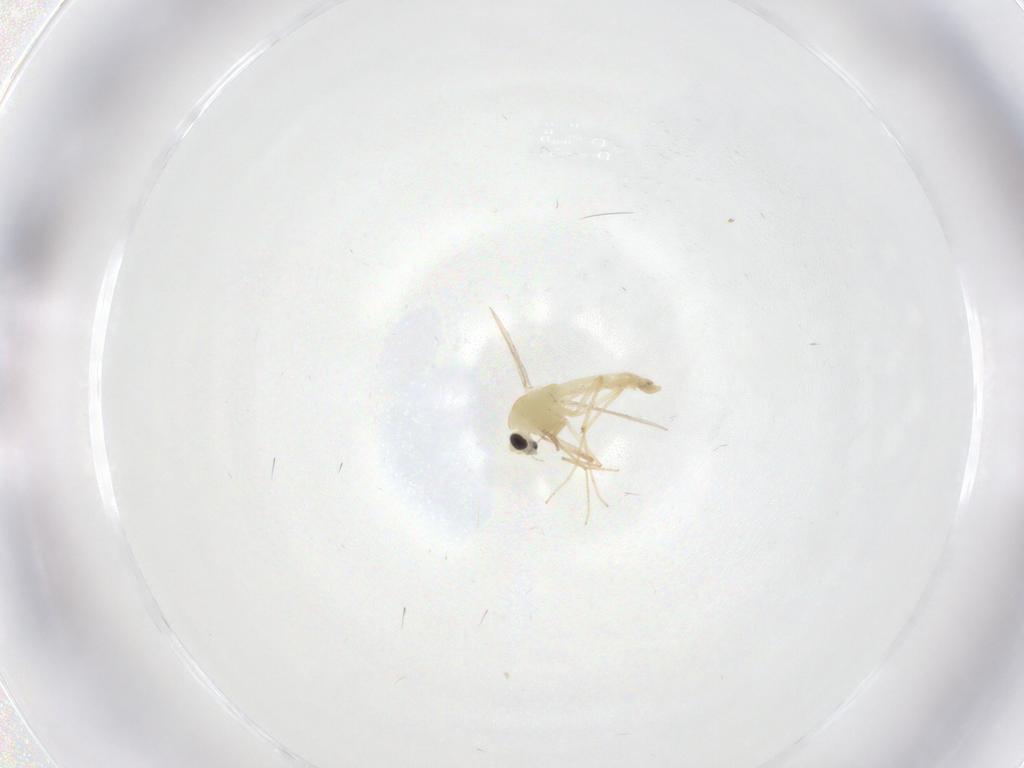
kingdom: Animalia
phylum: Arthropoda
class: Insecta
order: Diptera
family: Chironomidae
